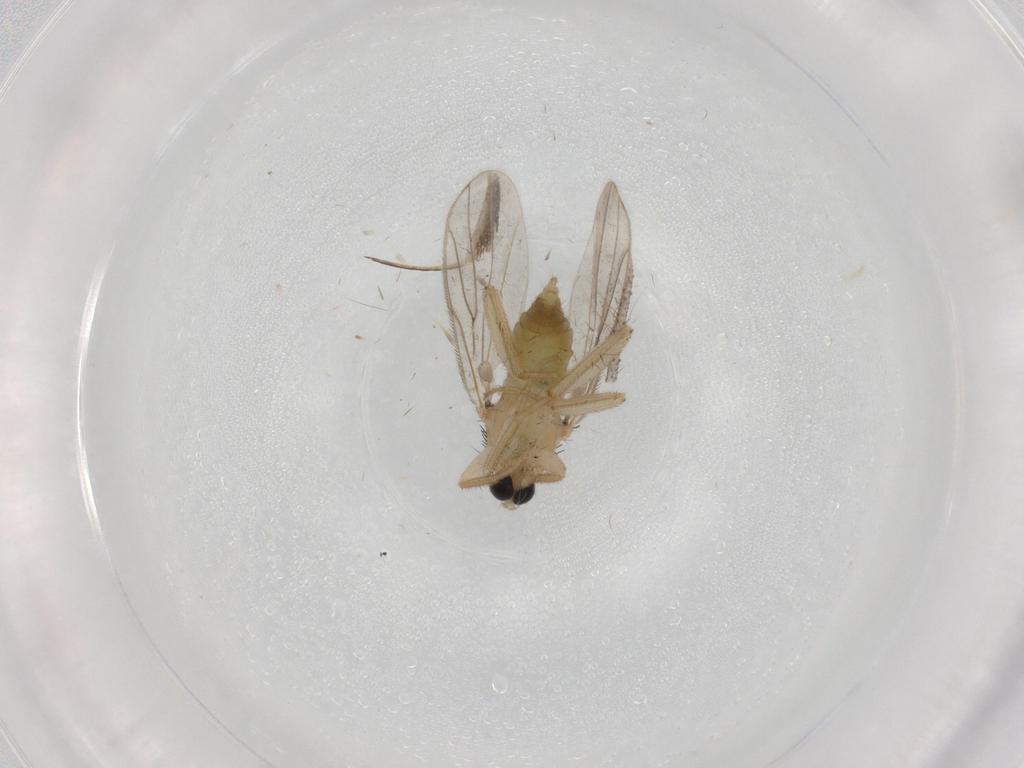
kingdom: Animalia
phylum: Arthropoda
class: Insecta
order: Diptera
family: Hybotidae
